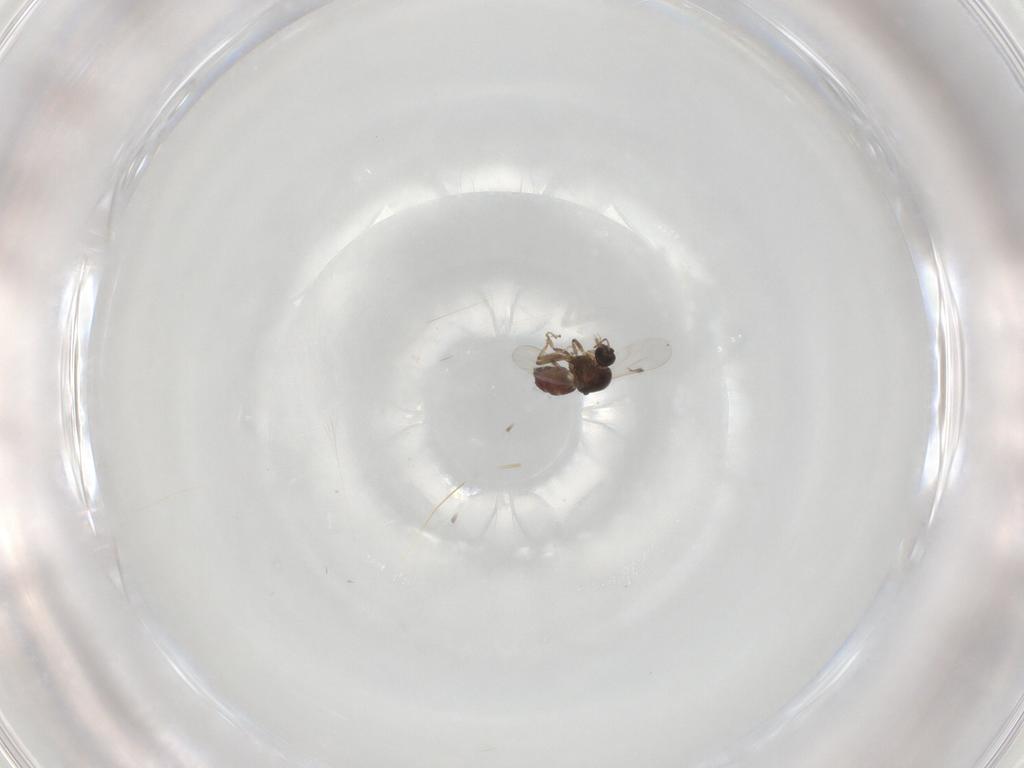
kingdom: Animalia
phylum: Arthropoda
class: Insecta
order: Diptera
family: Ceratopogonidae
